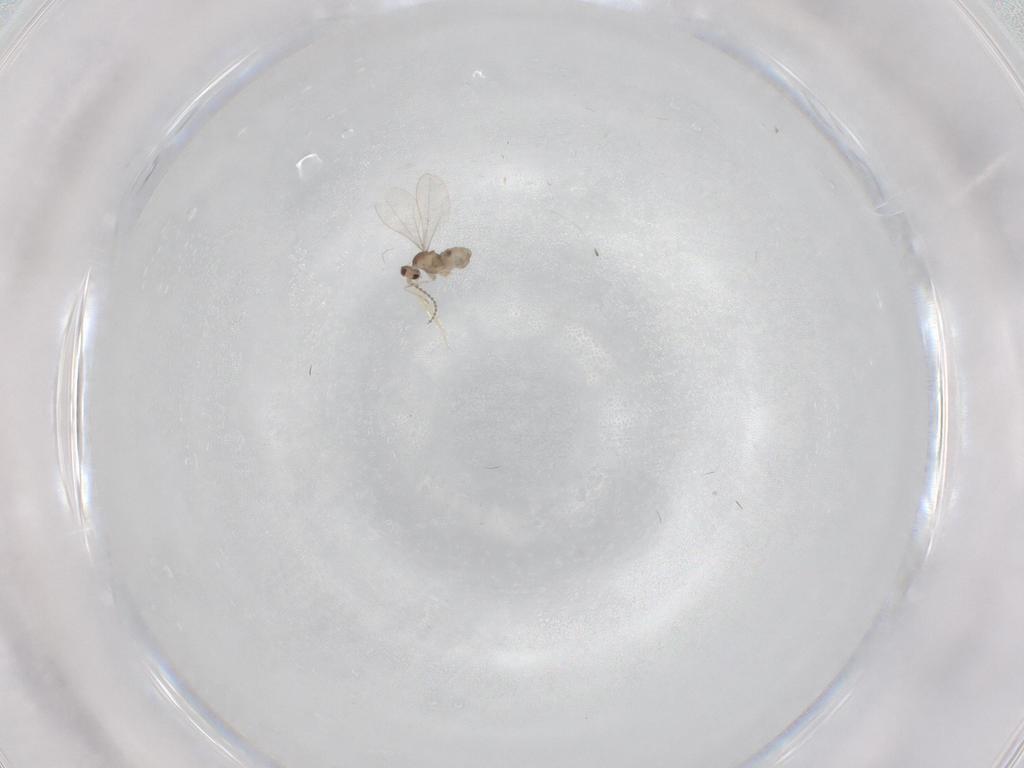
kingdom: Animalia
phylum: Arthropoda
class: Insecta
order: Diptera
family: Cecidomyiidae
